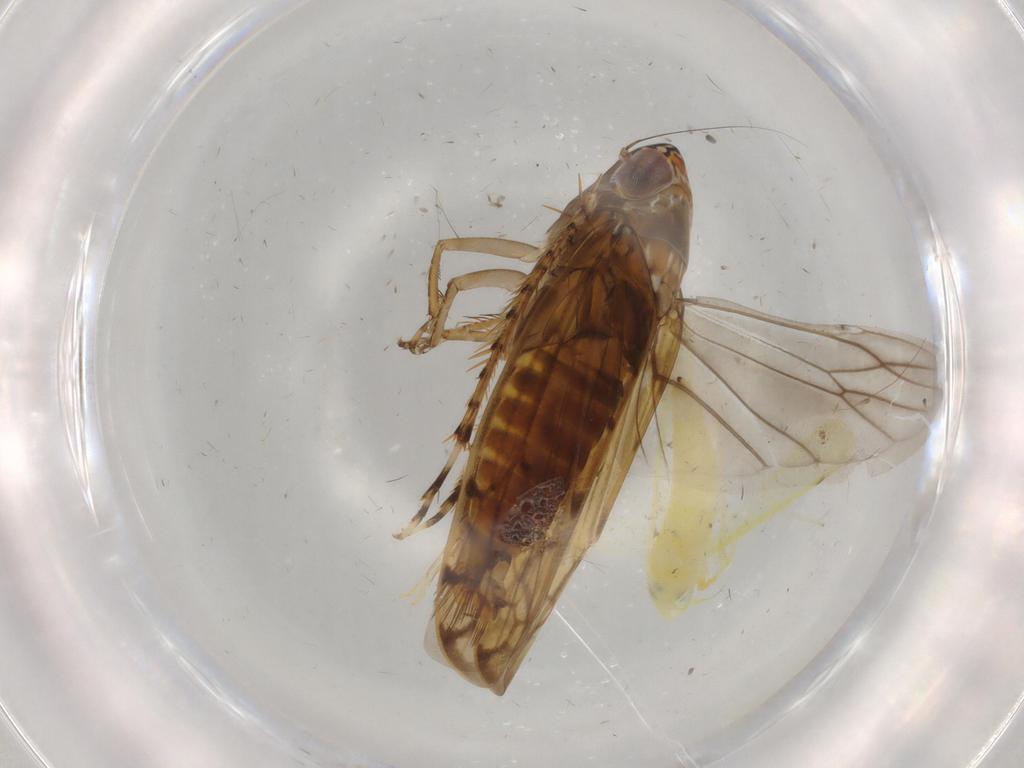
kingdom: Animalia
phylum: Arthropoda
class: Insecta
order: Hemiptera
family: Cicadellidae
